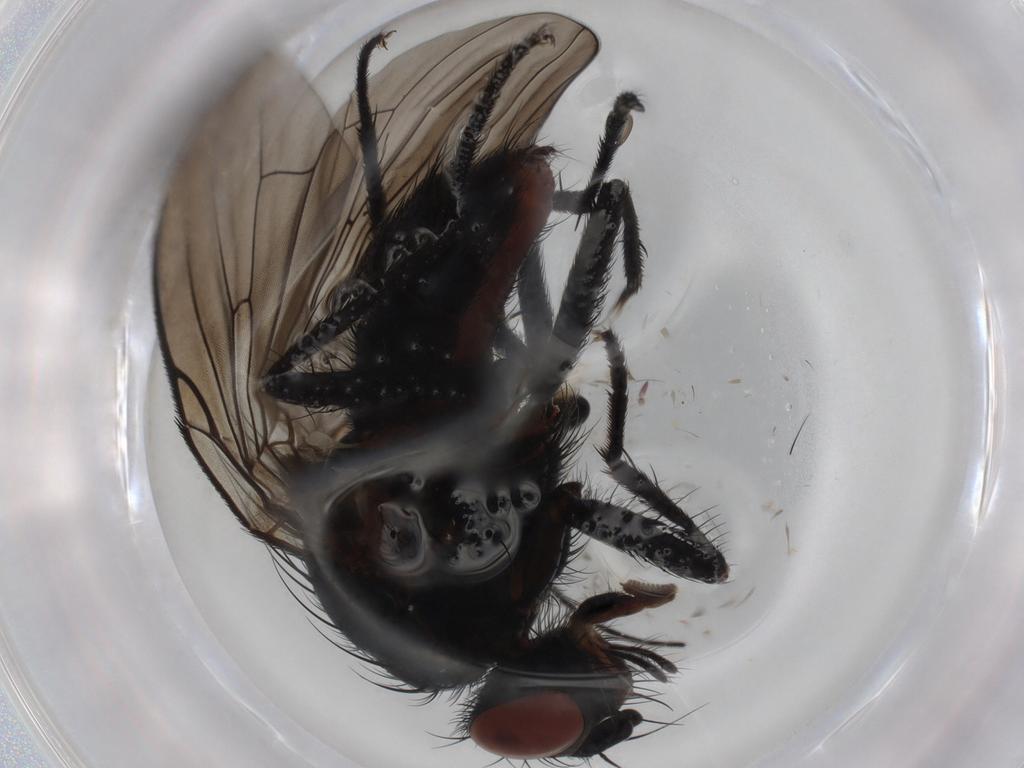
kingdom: Animalia
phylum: Arthropoda
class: Insecta
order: Diptera
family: Anthomyiidae
